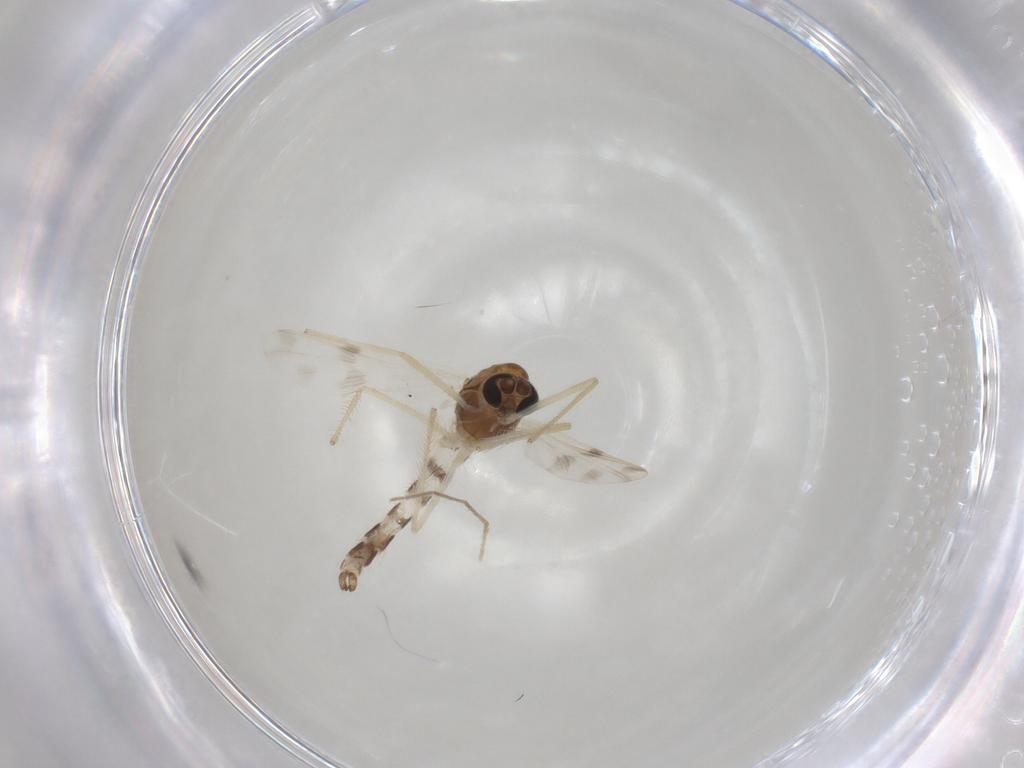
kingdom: Animalia
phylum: Arthropoda
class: Insecta
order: Diptera
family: Chironomidae
